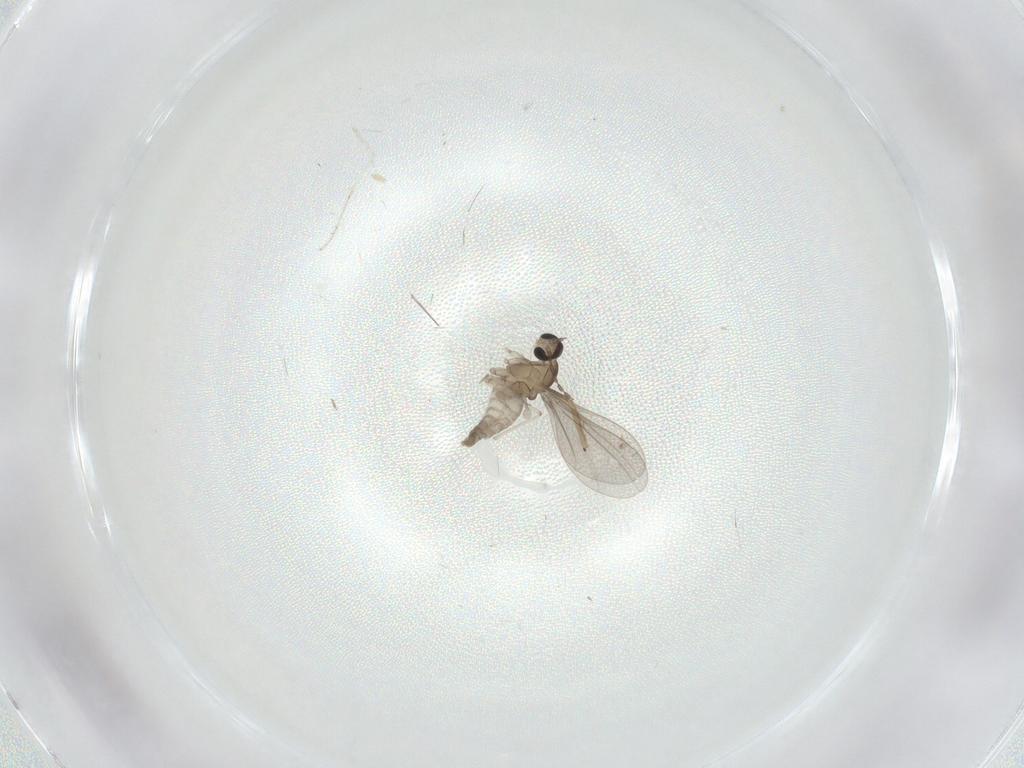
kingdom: Animalia
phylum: Arthropoda
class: Insecta
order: Diptera
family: Cecidomyiidae
